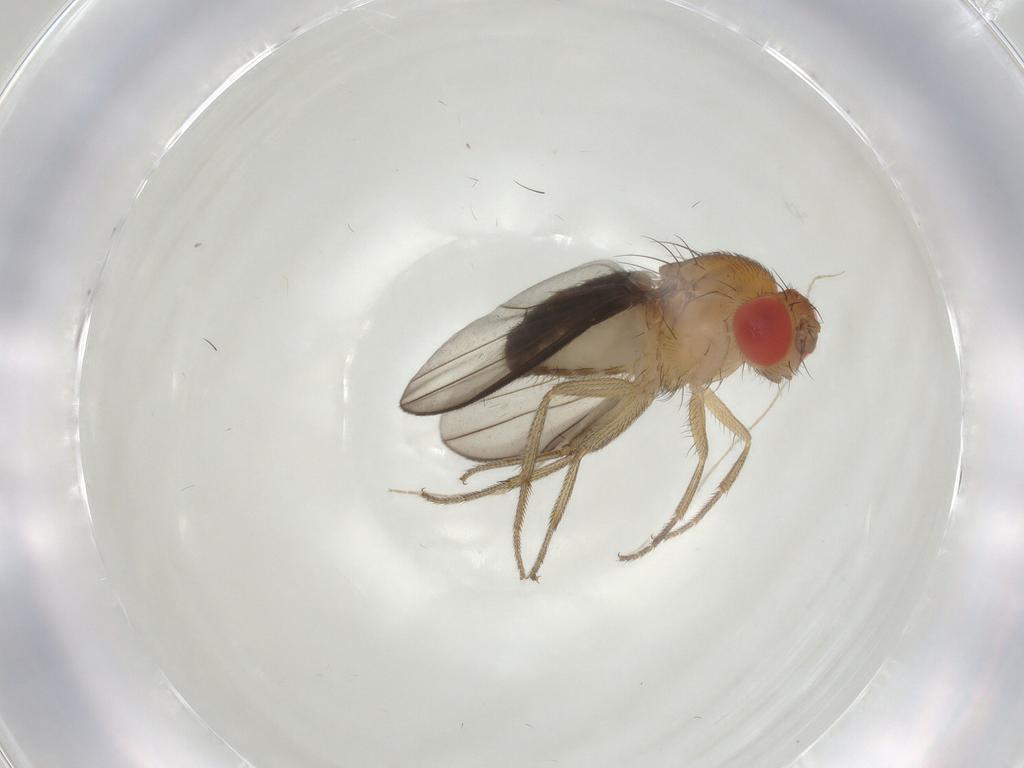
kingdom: Animalia
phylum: Arthropoda
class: Insecta
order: Diptera
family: Drosophilidae
